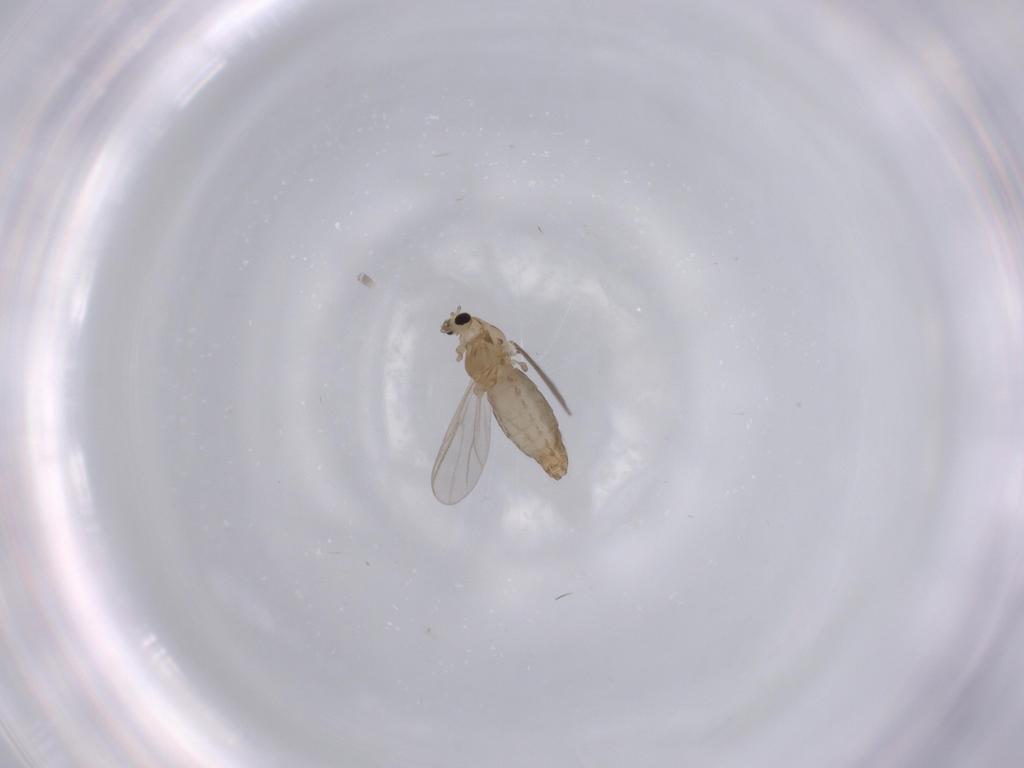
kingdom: Animalia
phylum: Arthropoda
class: Insecta
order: Diptera
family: Chironomidae
